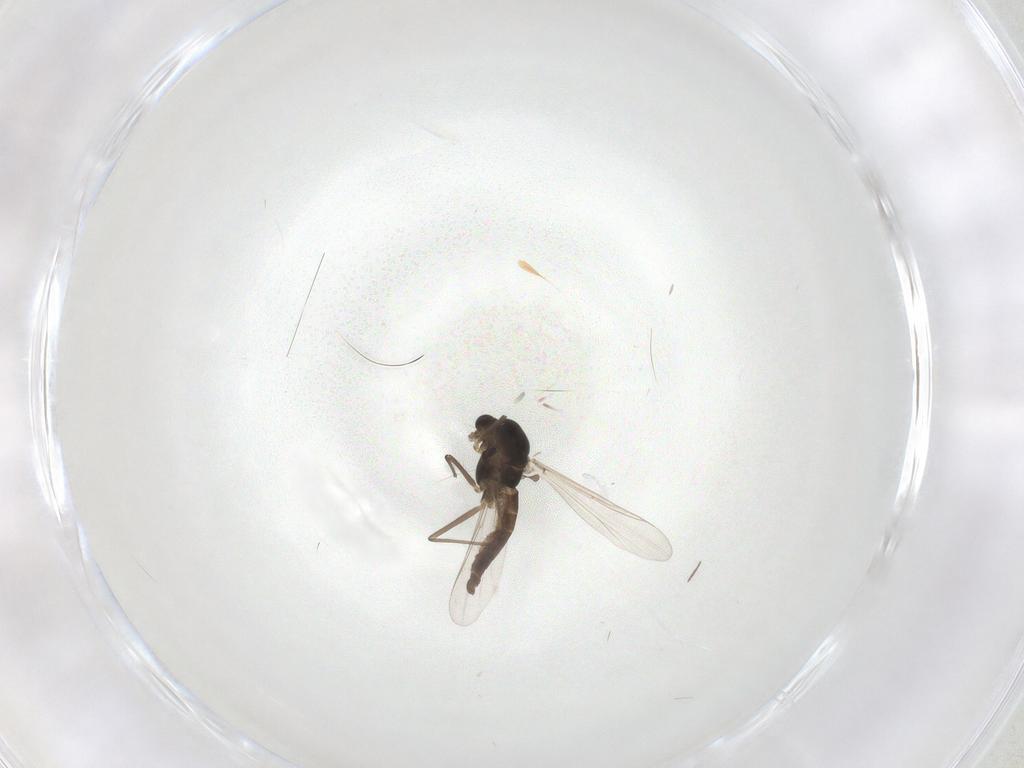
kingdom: Animalia
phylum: Arthropoda
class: Insecta
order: Diptera
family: Chironomidae
